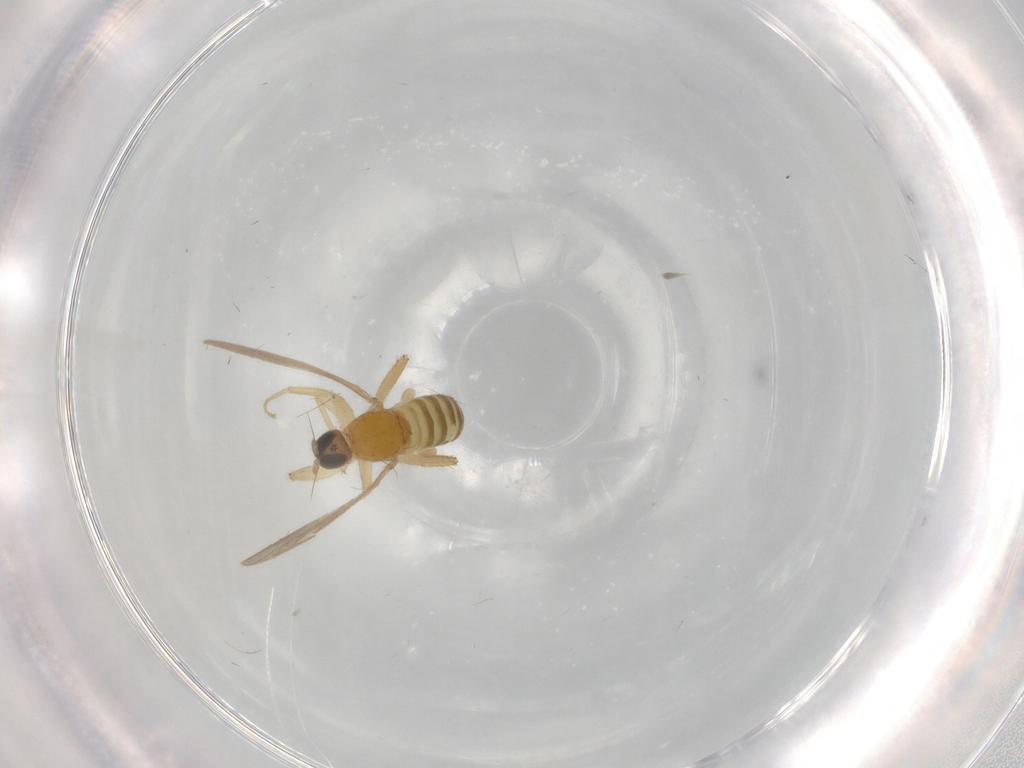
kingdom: Animalia
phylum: Arthropoda
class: Insecta
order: Diptera
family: Hybotidae
